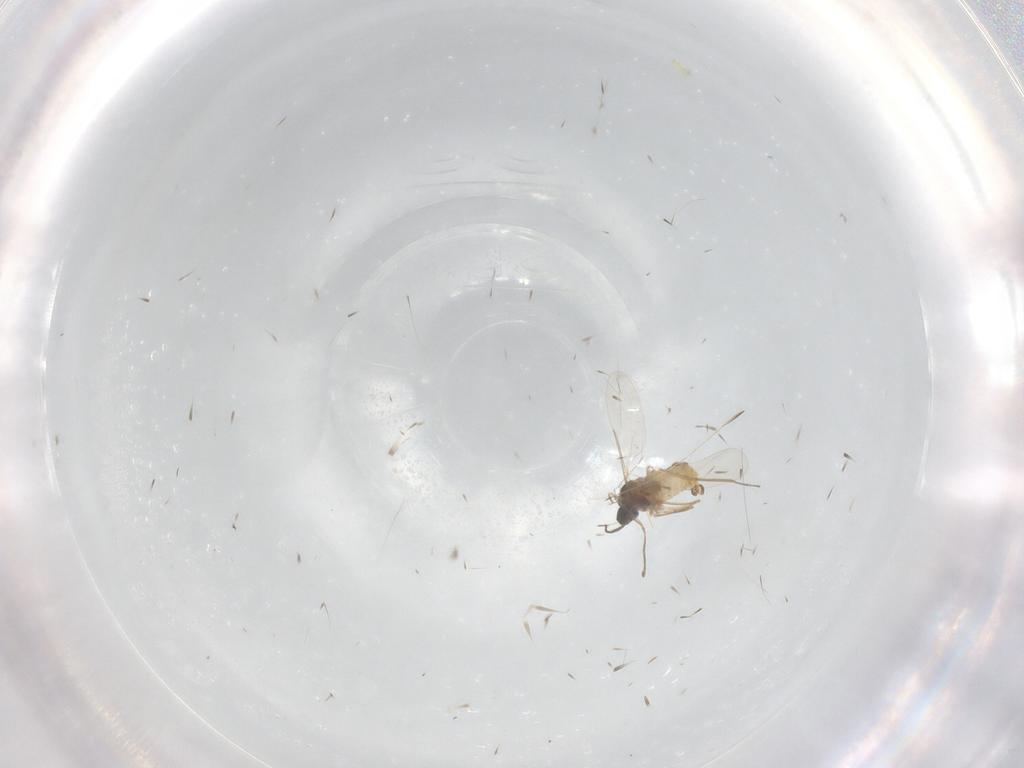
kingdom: Animalia
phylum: Arthropoda
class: Insecta
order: Diptera
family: Cecidomyiidae
